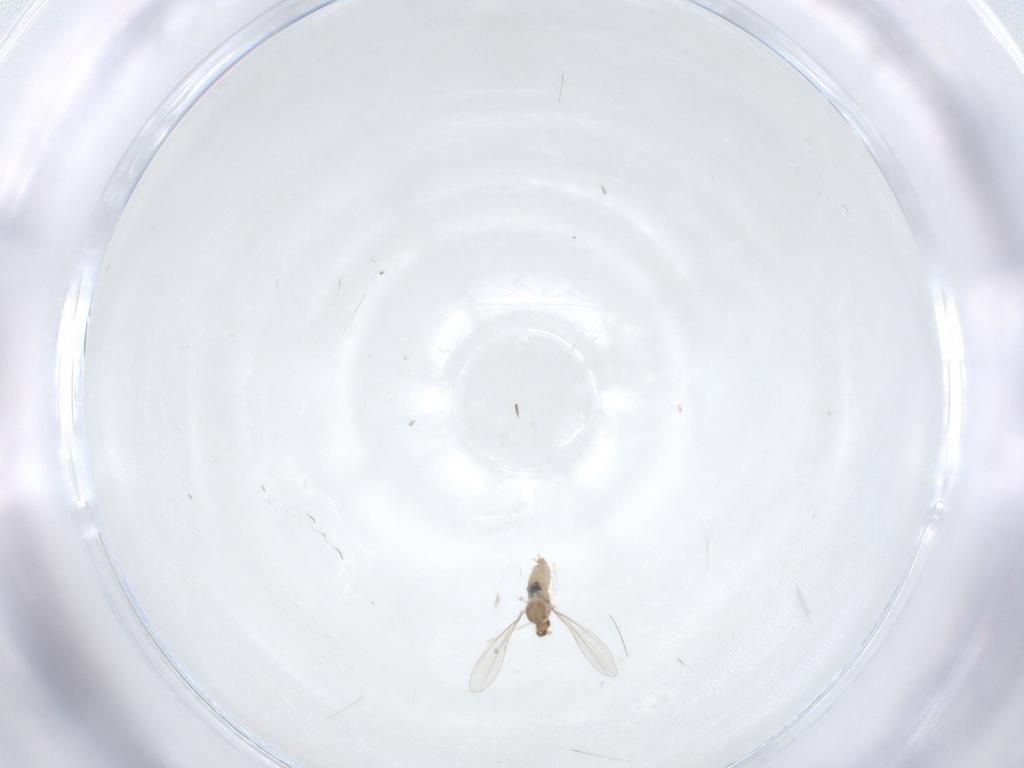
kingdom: Animalia
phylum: Arthropoda
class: Insecta
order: Diptera
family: Cecidomyiidae
